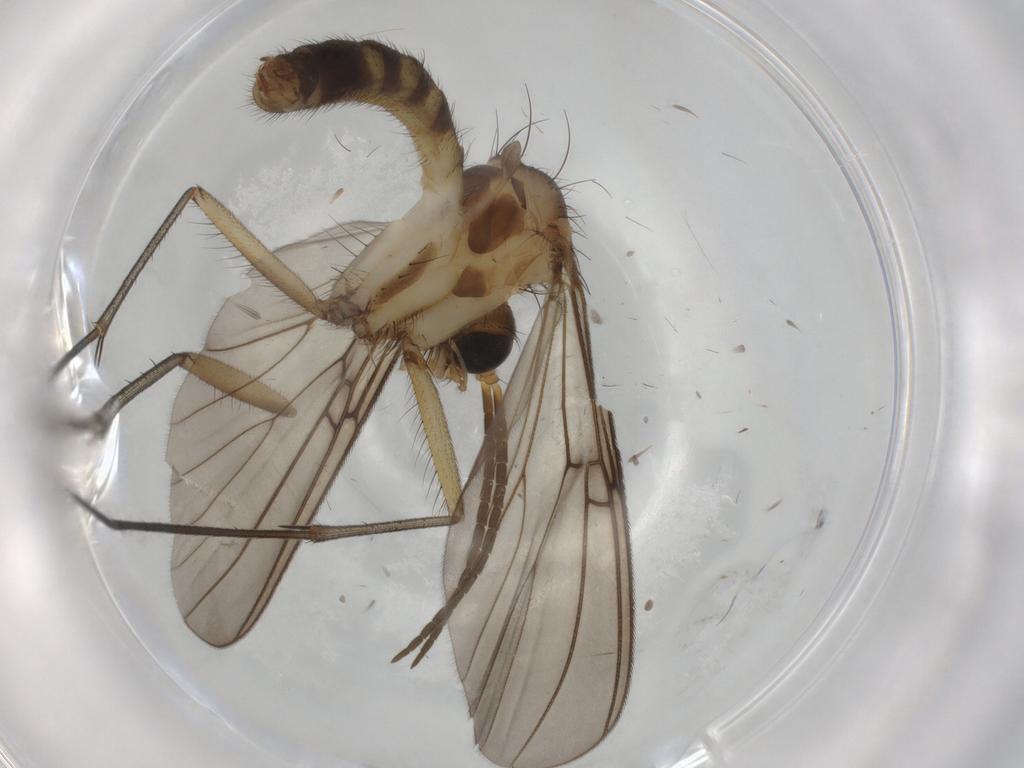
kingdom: Animalia
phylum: Arthropoda
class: Insecta
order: Diptera
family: Mycetophilidae
